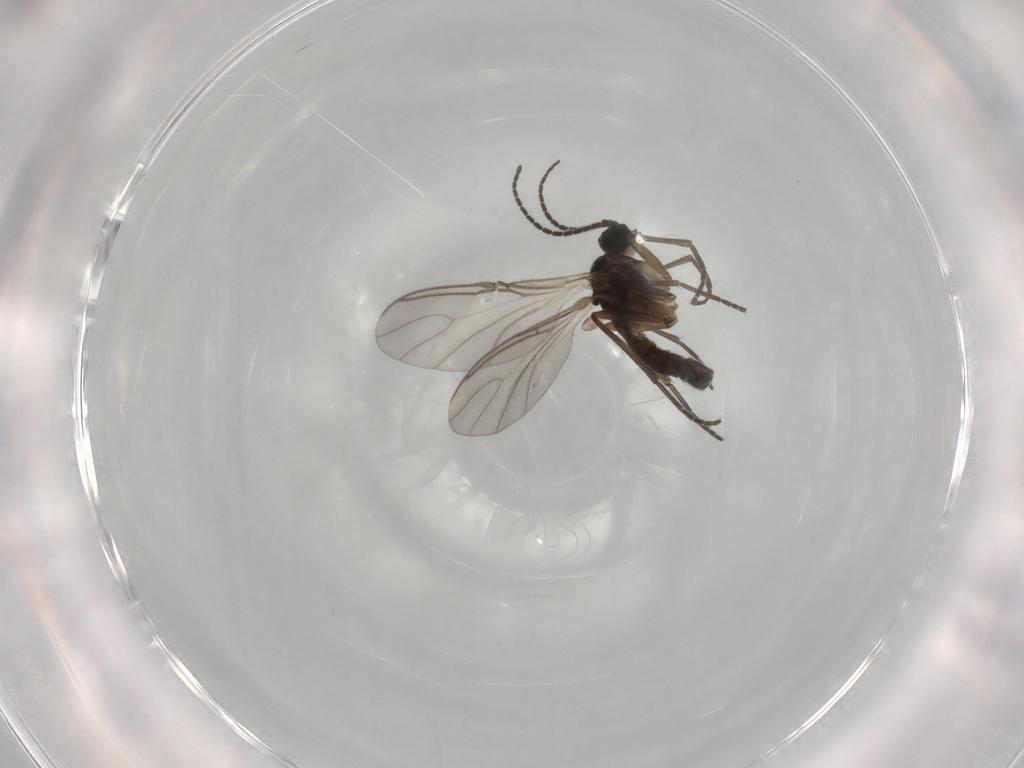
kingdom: Animalia
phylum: Arthropoda
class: Insecta
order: Diptera
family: Sciaridae
